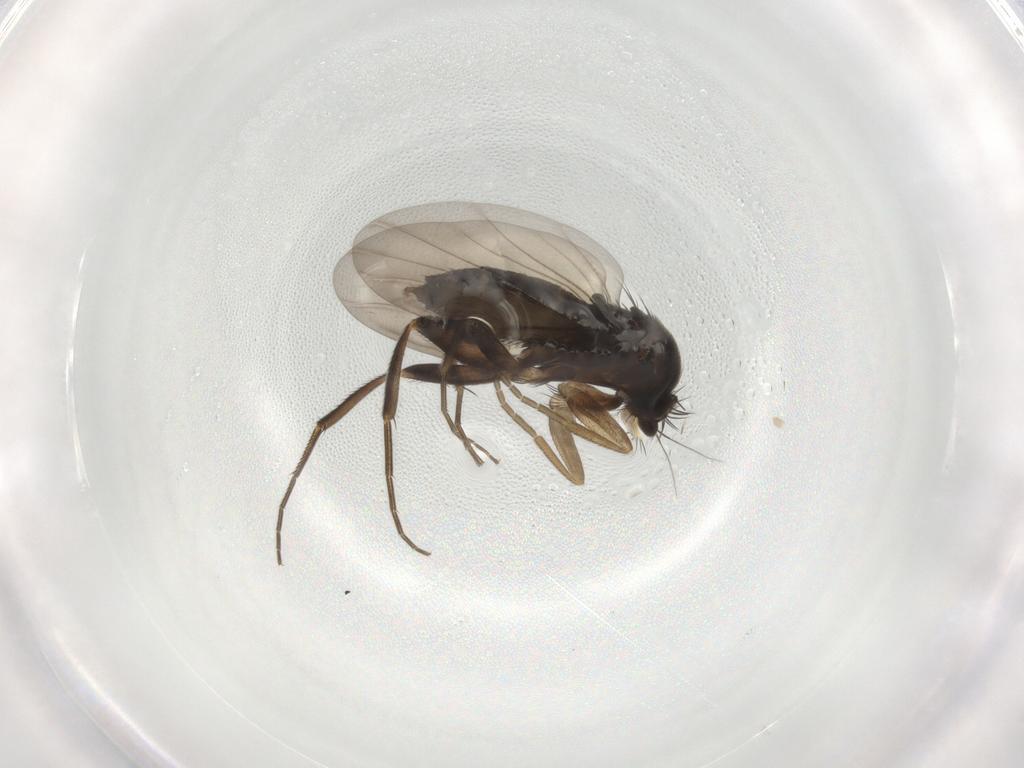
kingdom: Animalia
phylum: Arthropoda
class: Insecta
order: Diptera
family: Phoridae
